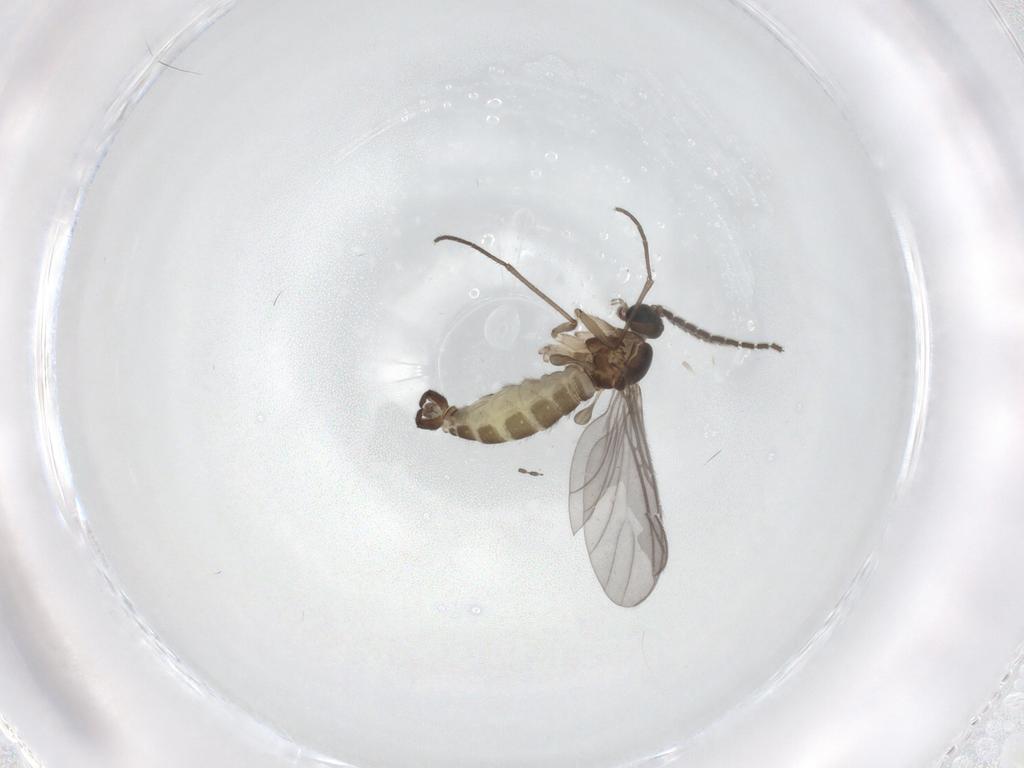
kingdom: Animalia
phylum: Arthropoda
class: Insecta
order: Diptera
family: Sciaridae
